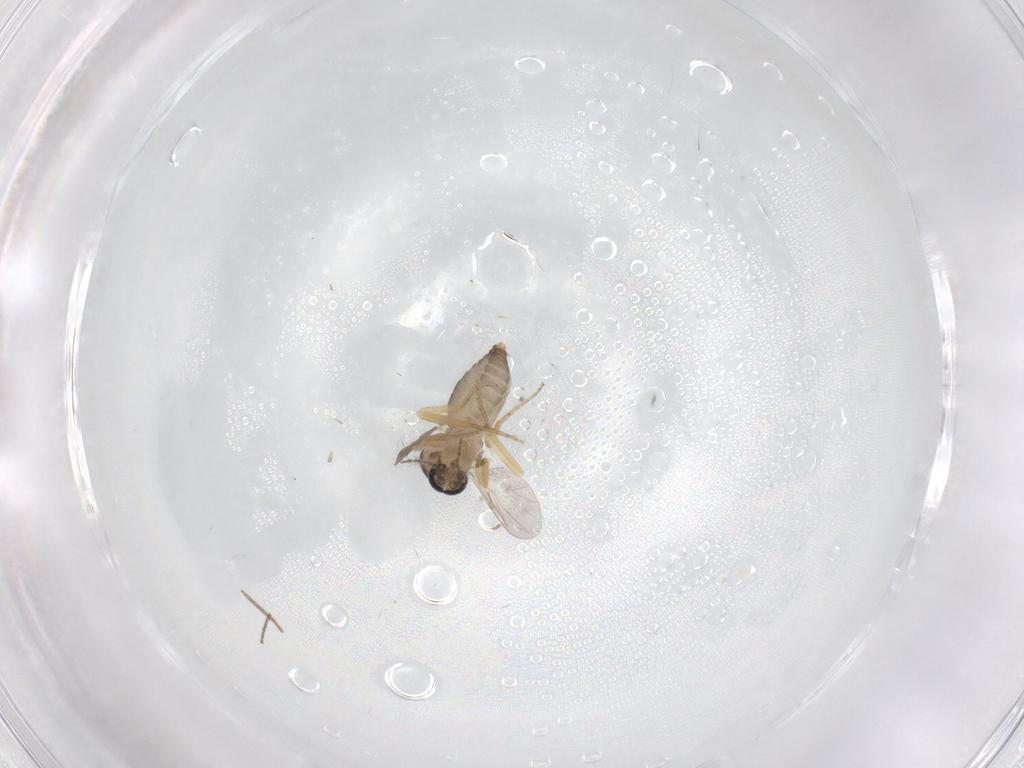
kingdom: Animalia
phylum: Arthropoda
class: Insecta
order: Diptera
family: Ceratopogonidae
